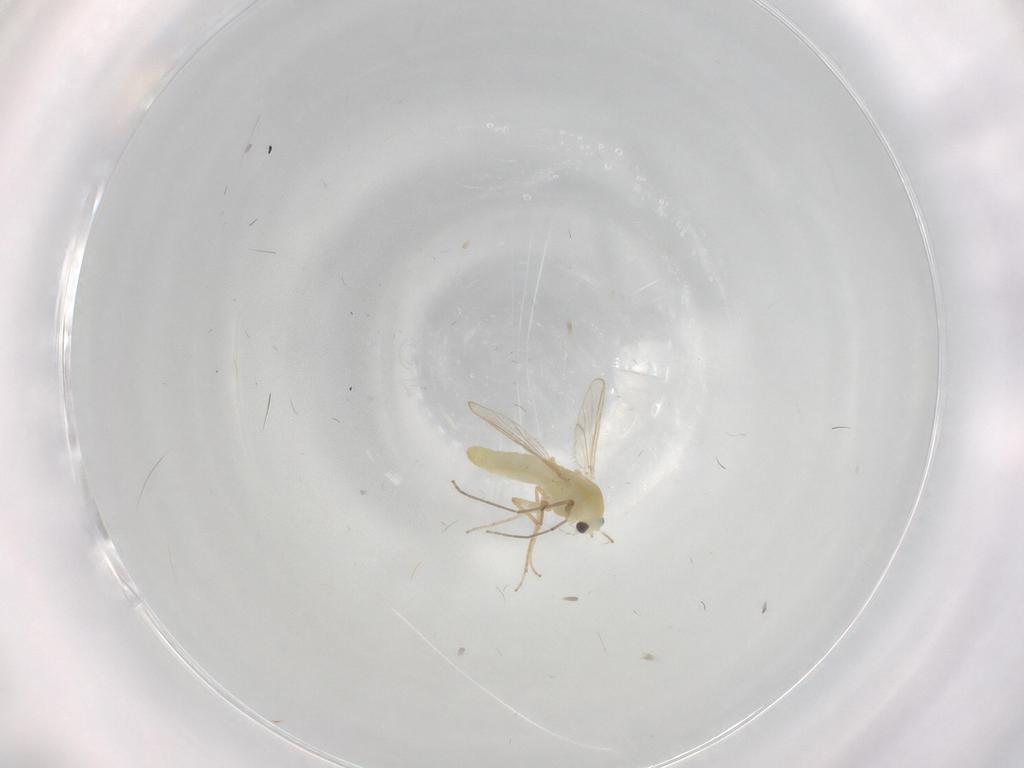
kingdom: Animalia
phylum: Arthropoda
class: Insecta
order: Diptera
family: Chironomidae
